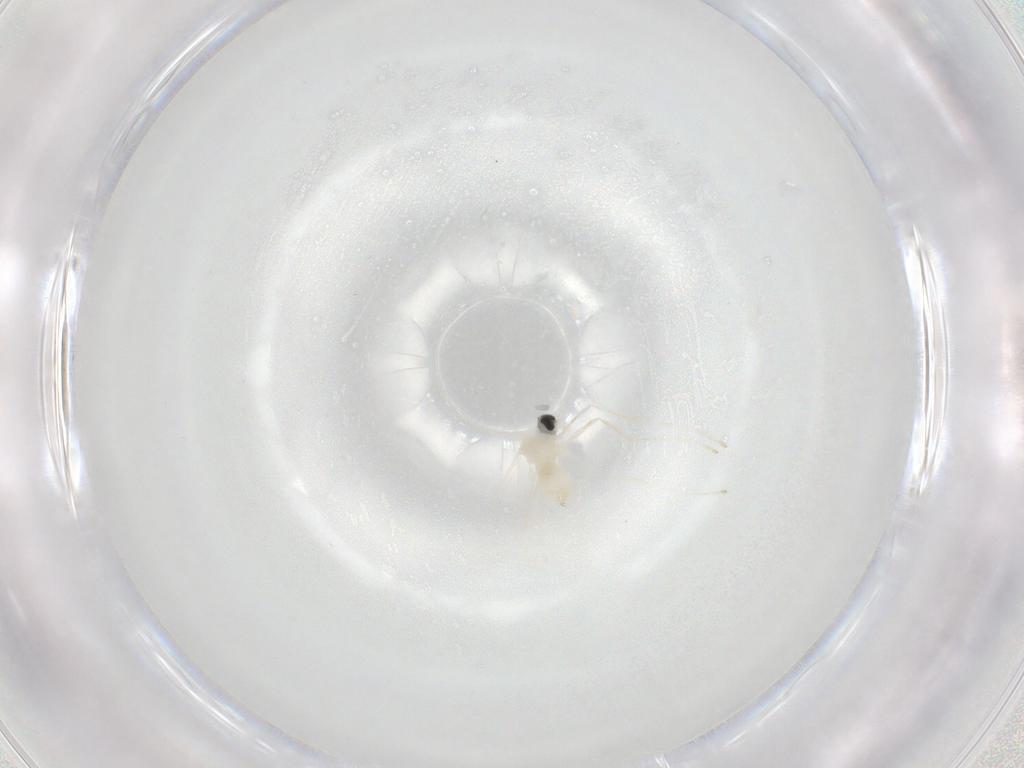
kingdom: Animalia
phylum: Arthropoda
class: Insecta
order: Diptera
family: Cecidomyiidae
